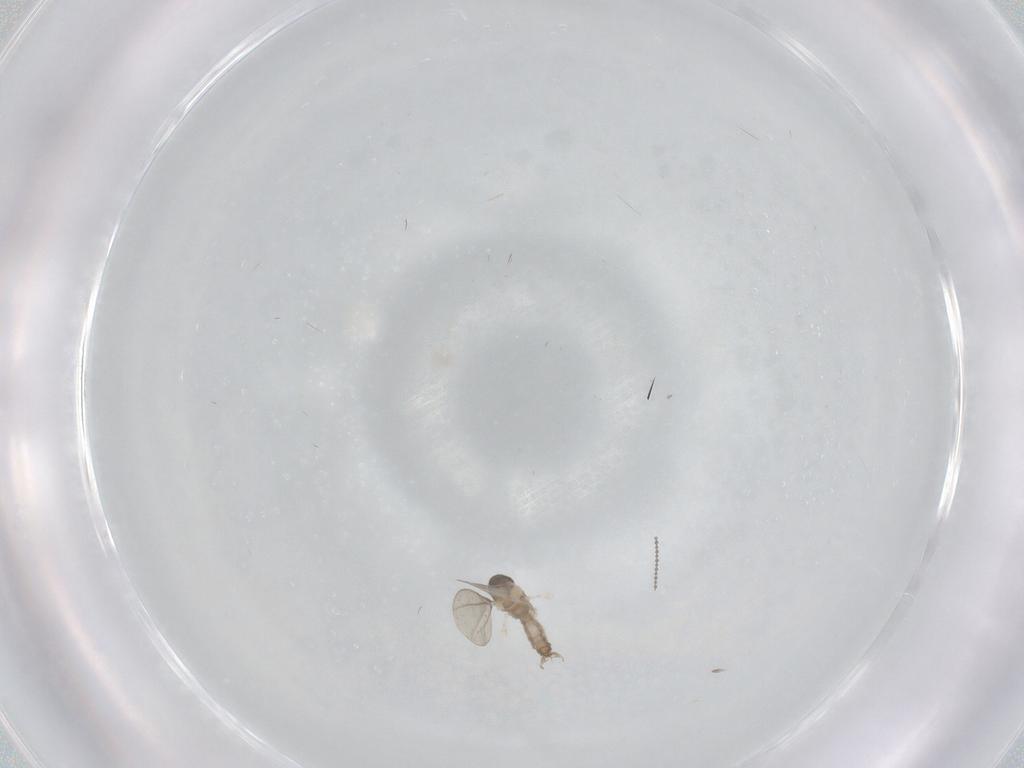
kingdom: Animalia
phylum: Arthropoda
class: Insecta
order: Diptera
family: Cecidomyiidae
